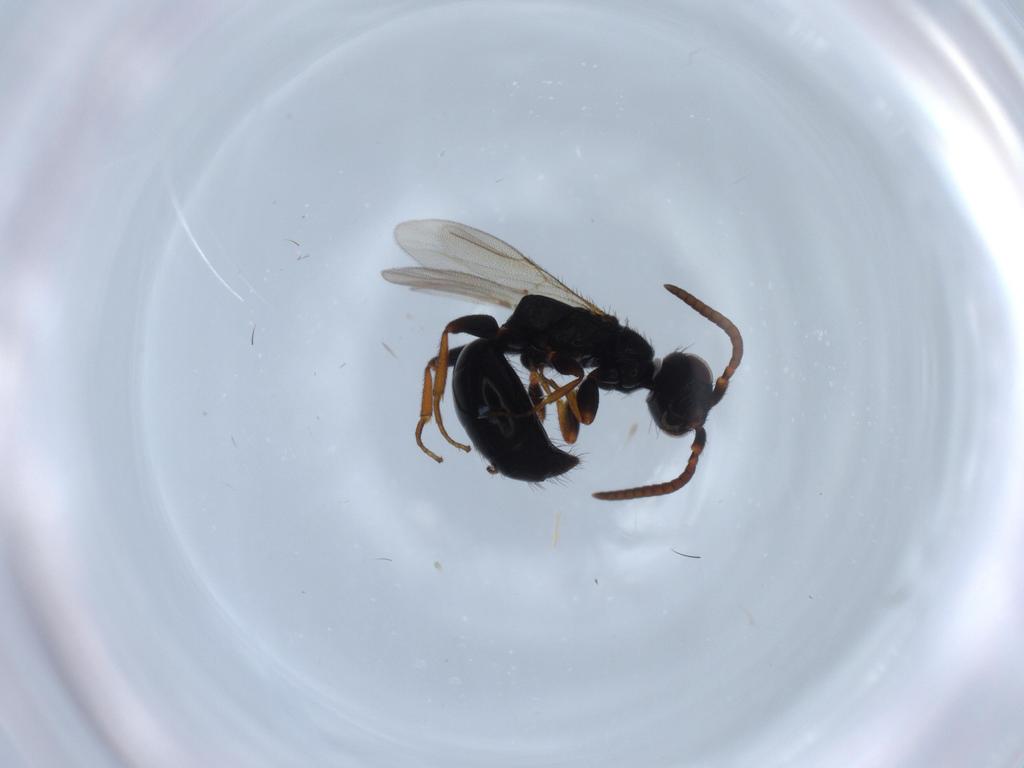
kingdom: Animalia
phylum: Arthropoda
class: Insecta
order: Hymenoptera
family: Bethylidae
